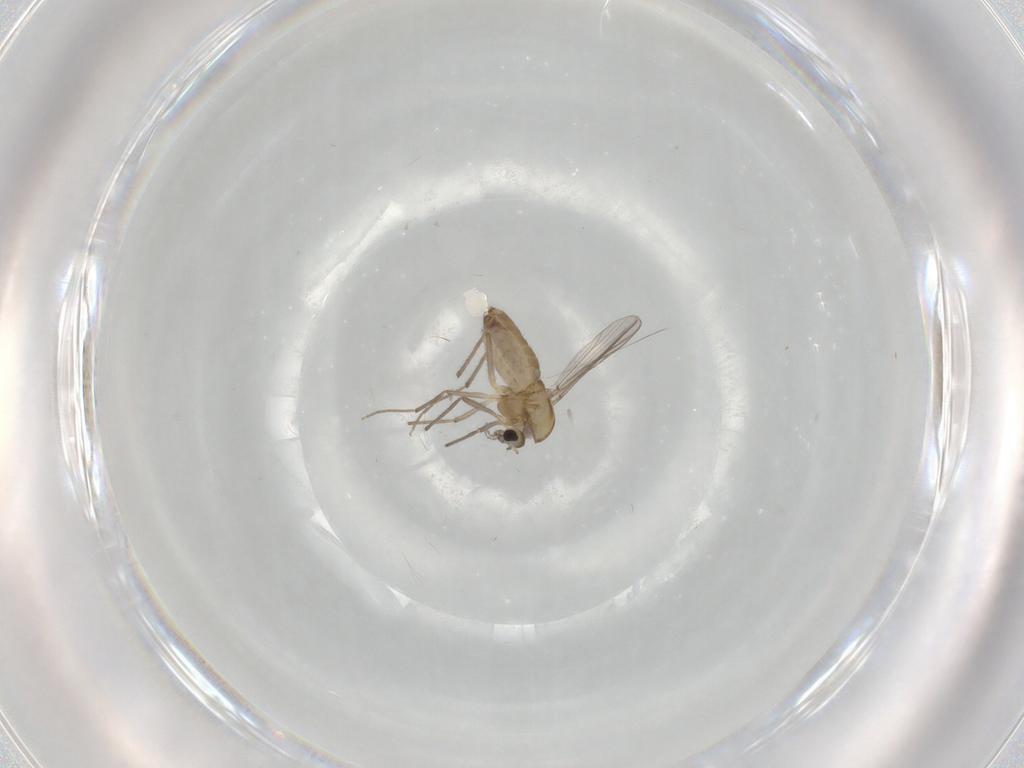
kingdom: Animalia
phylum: Arthropoda
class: Insecta
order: Diptera
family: Chironomidae
